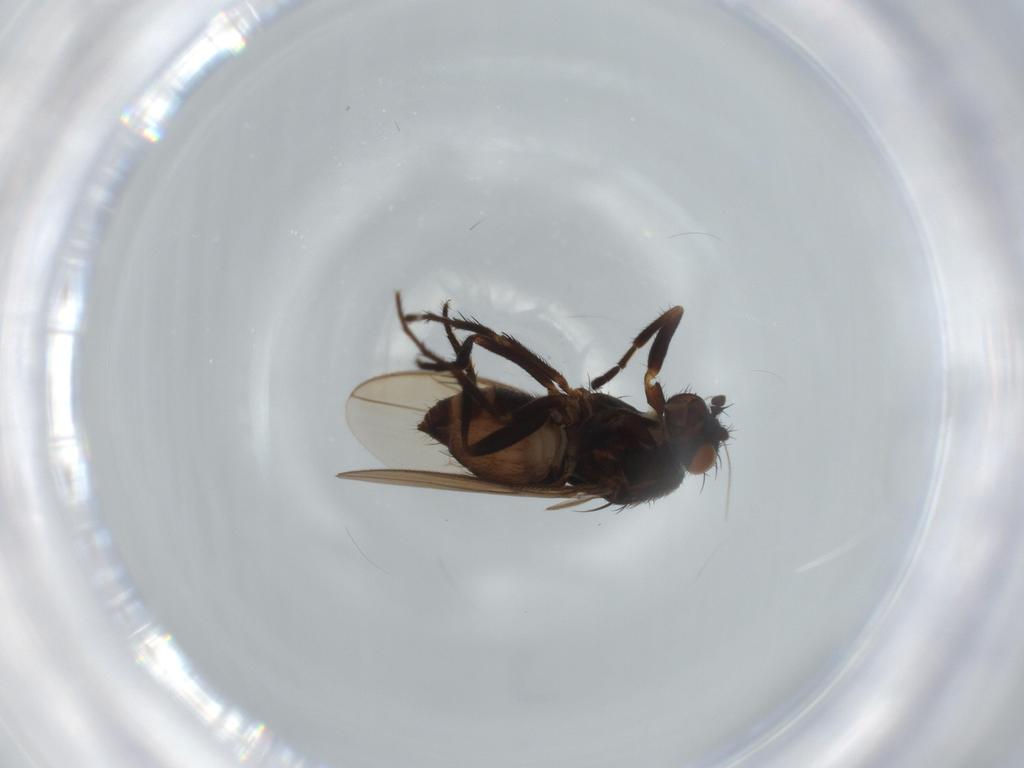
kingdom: Animalia
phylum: Arthropoda
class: Insecta
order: Diptera
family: Sphaeroceridae
